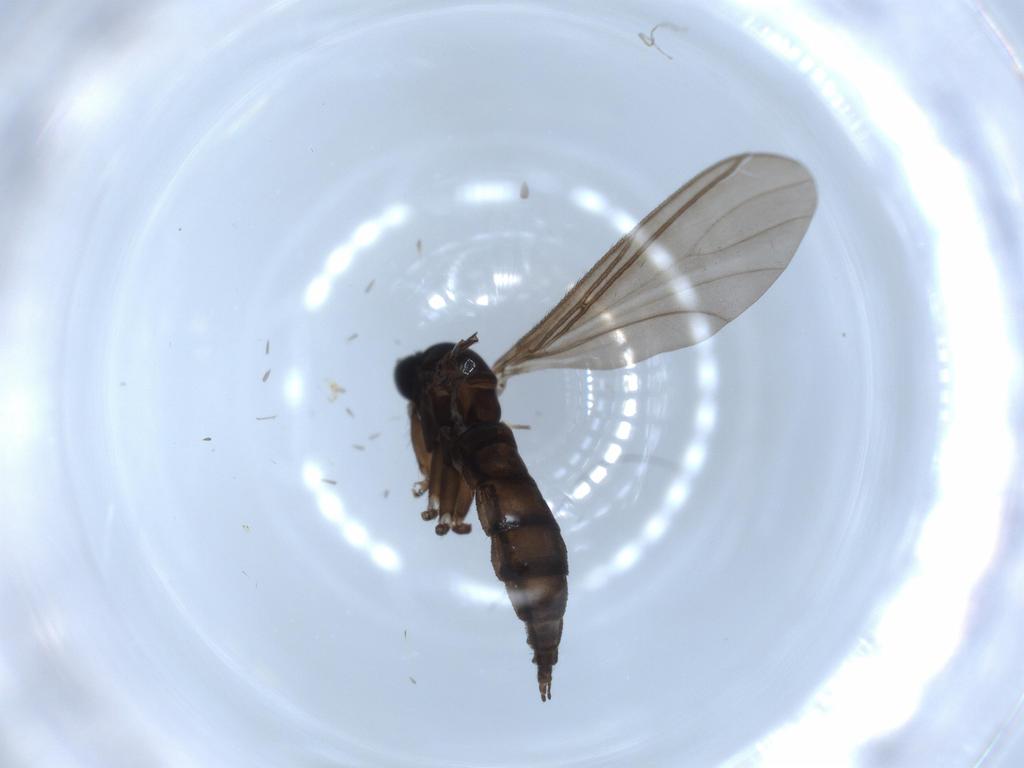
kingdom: Animalia
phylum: Arthropoda
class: Insecta
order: Diptera
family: Sciaridae
